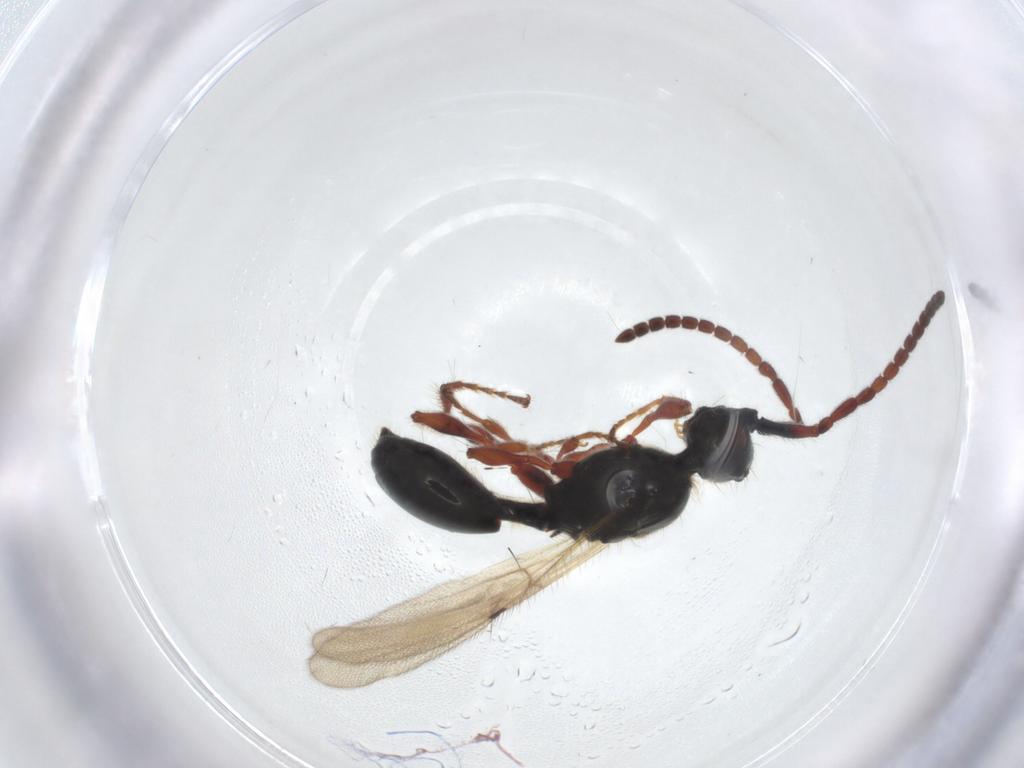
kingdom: Animalia
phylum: Arthropoda
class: Insecta
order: Hymenoptera
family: Diapriidae
